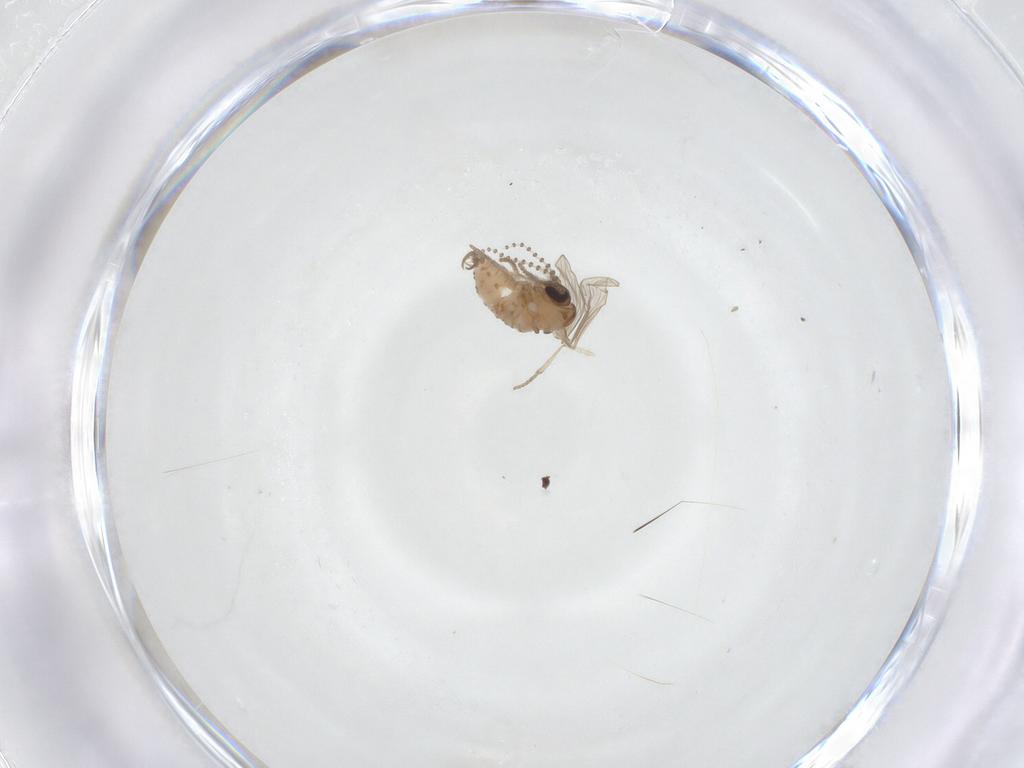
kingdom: Animalia
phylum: Arthropoda
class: Insecta
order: Diptera
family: Psychodidae
